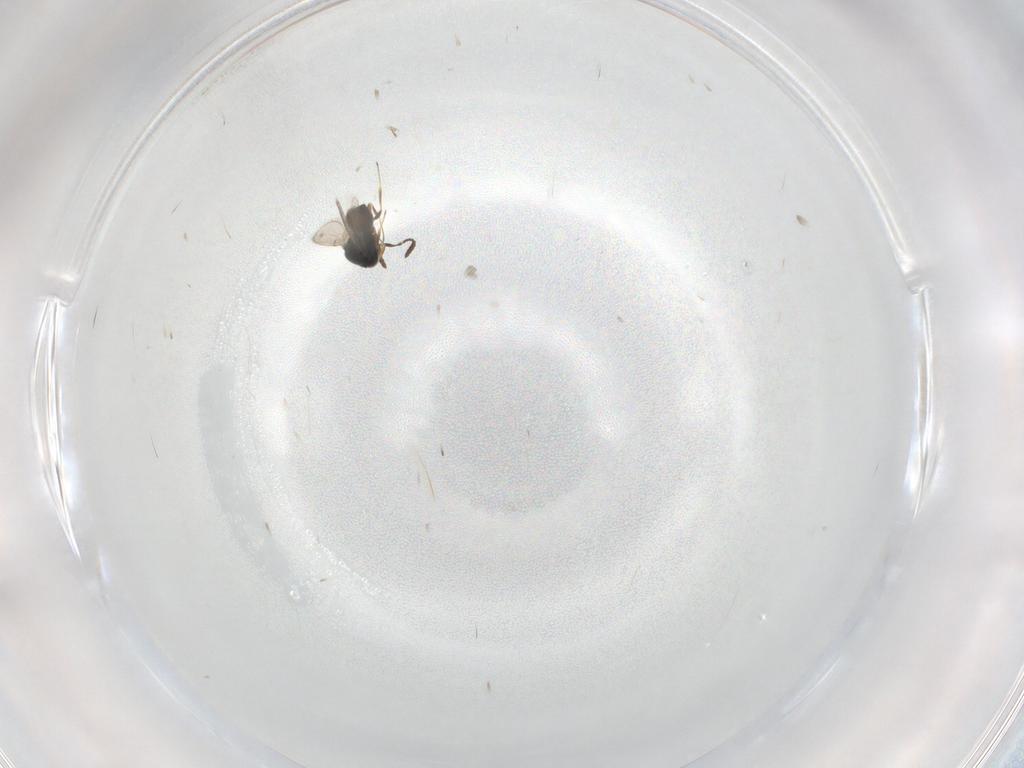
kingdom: Animalia
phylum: Arthropoda
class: Insecta
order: Hymenoptera
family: Scelionidae
